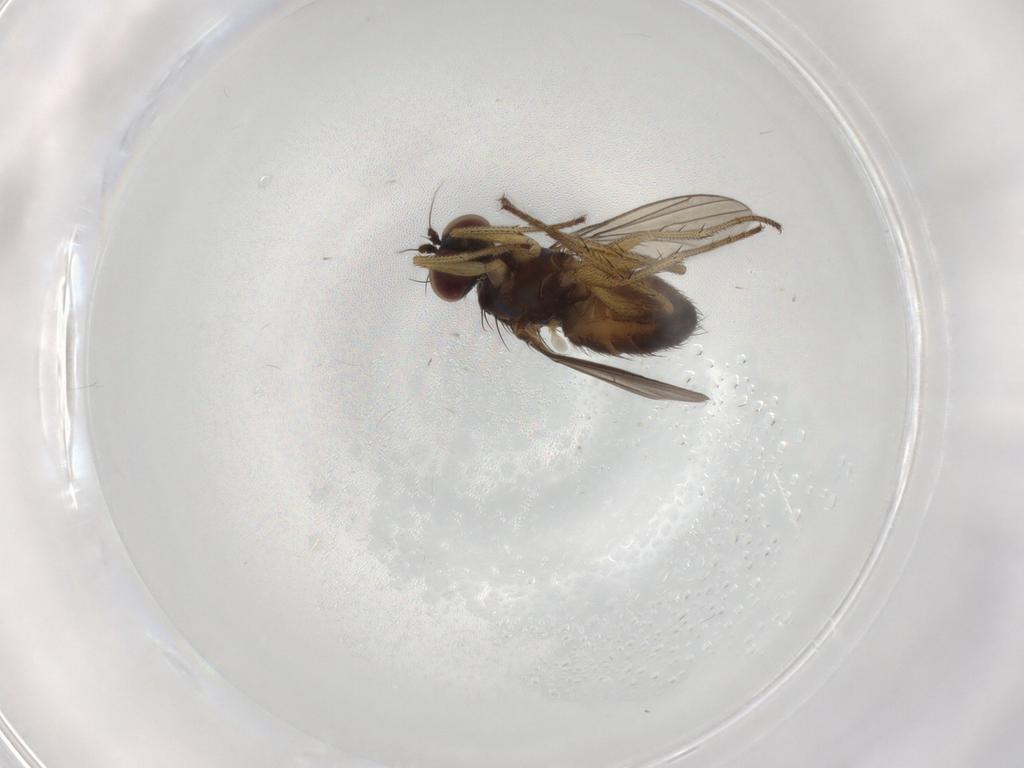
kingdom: Animalia
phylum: Arthropoda
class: Insecta
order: Diptera
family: Dolichopodidae
